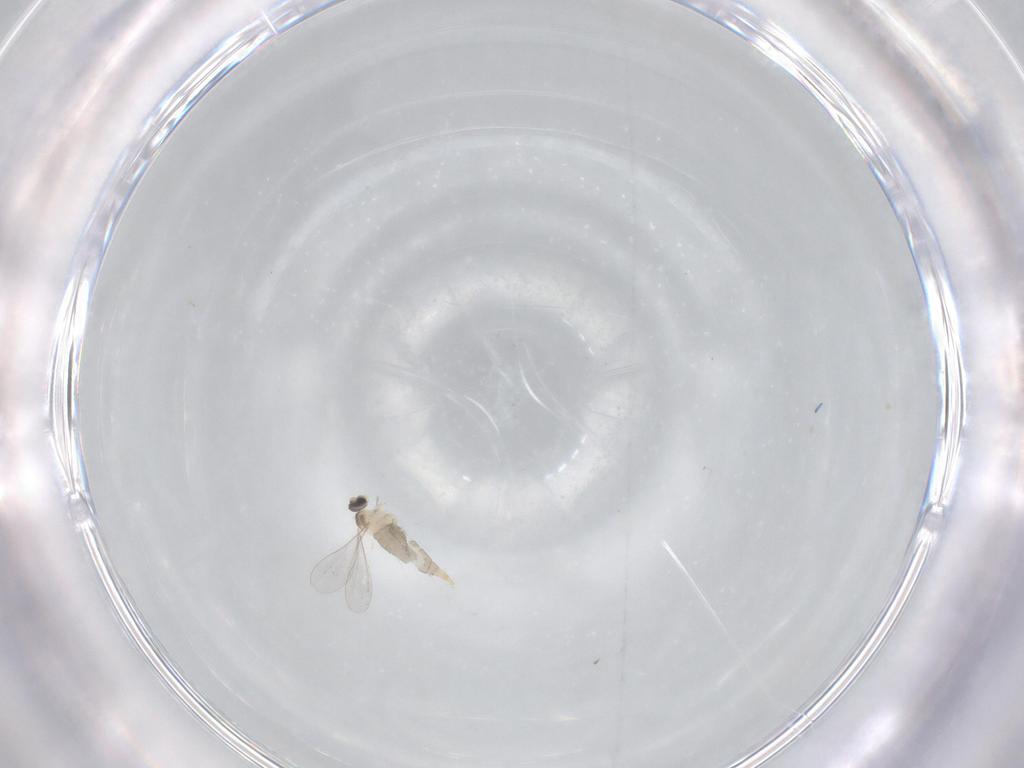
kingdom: Animalia
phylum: Arthropoda
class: Insecta
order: Diptera
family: Cecidomyiidae
